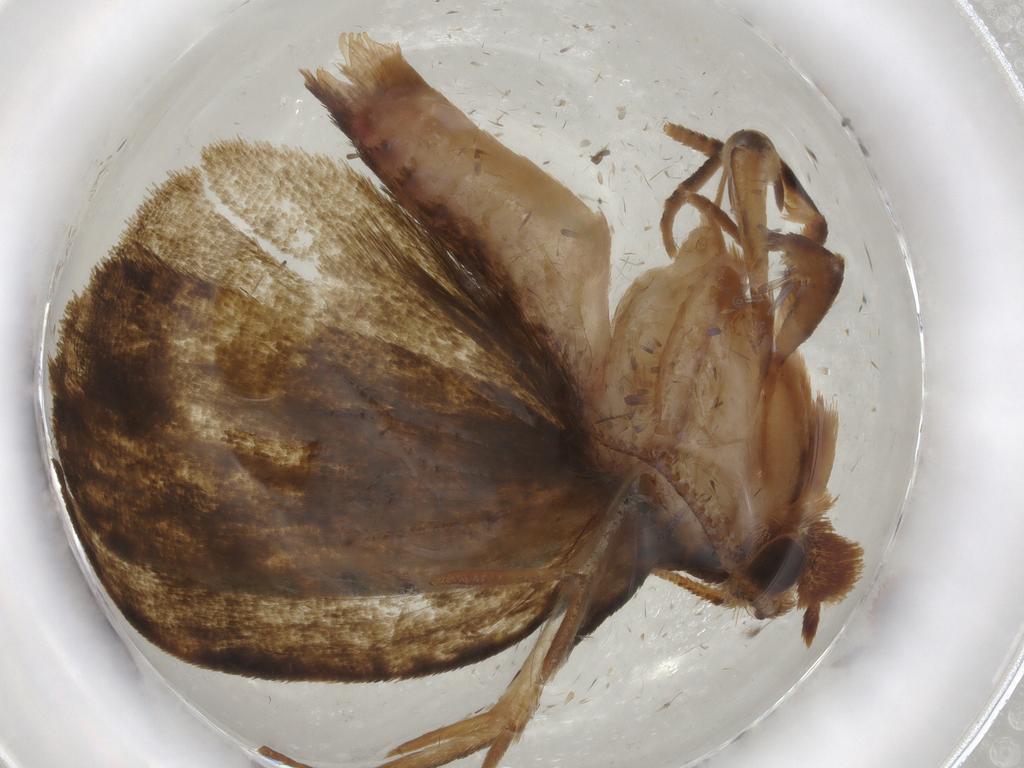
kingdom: Animalia
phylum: Arthropoda
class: Insecta
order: Lepidoptera
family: Geometridae
